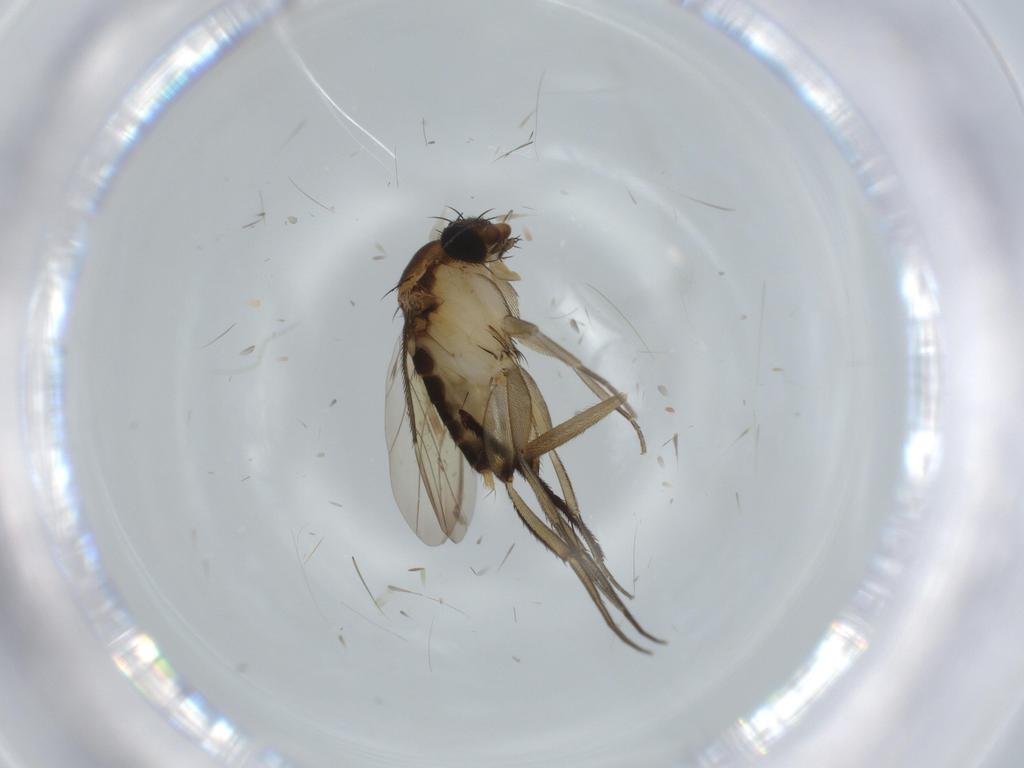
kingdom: Animalia
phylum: Arthropoda
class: Insecta
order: Diptera
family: Phoridae
